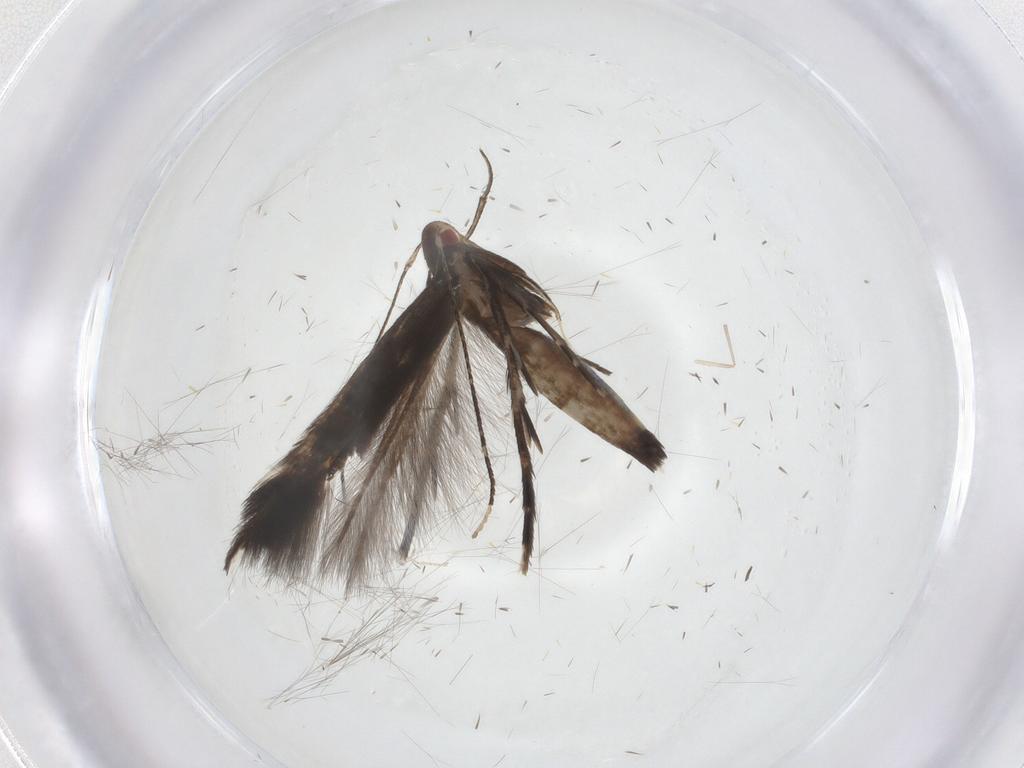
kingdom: Animalia
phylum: Arthropoda
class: Insecta
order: Lepidoptera
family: Cosmopterigidae
